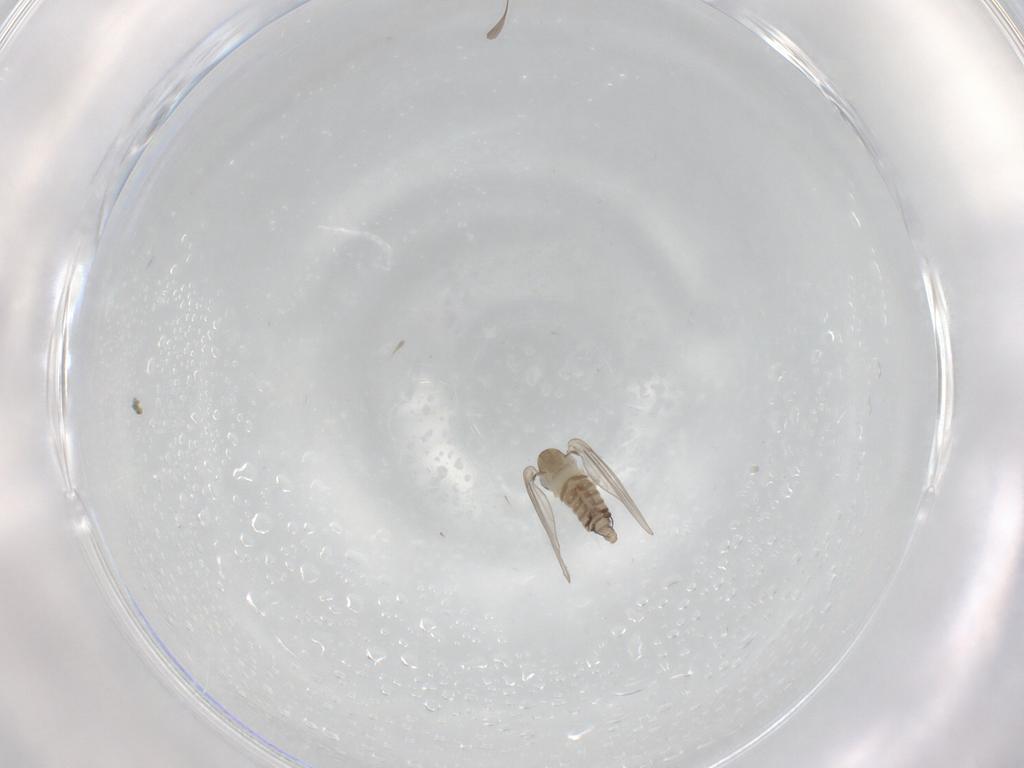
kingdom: Animalia
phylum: Arthropoda
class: Insecta
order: Diptera
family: Psychodidae
